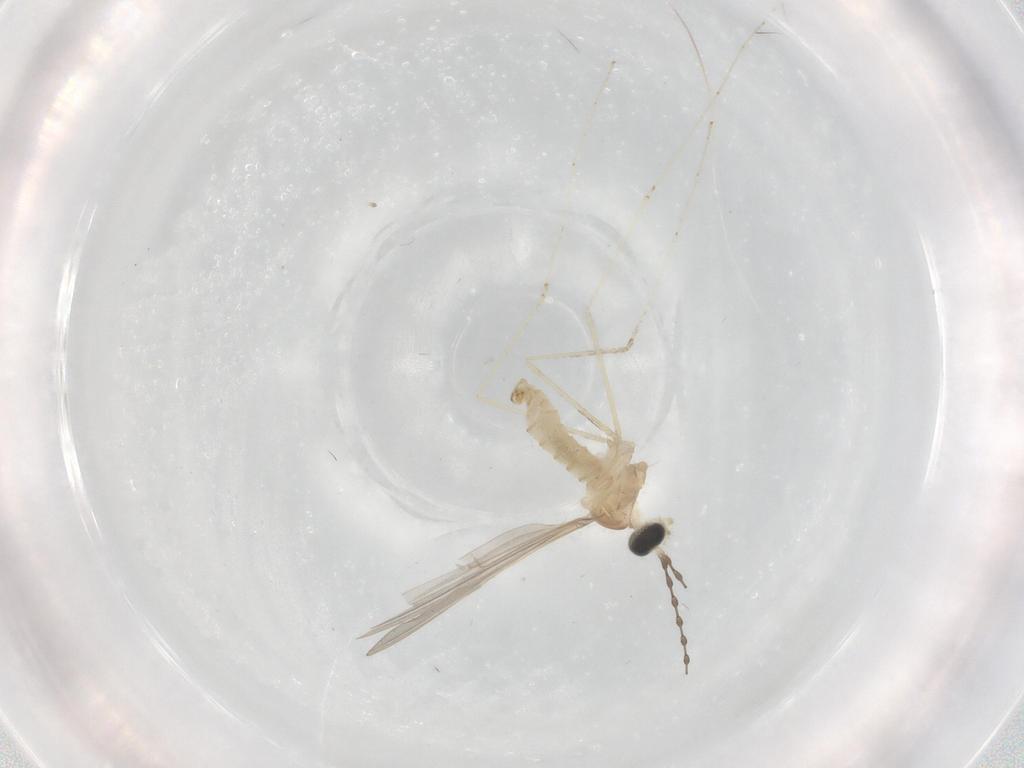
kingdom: Animalia
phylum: Arthropoda
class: Insecta
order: Diptera
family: Cecidomyiidae
